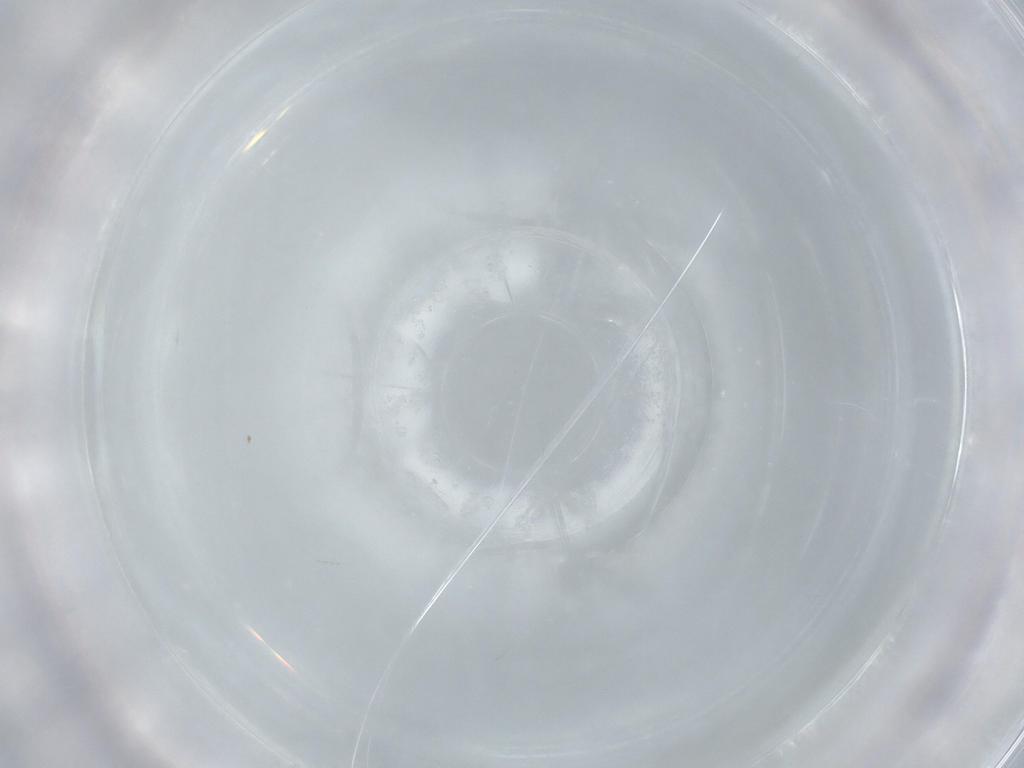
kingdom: Animalia
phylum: Arthropoda
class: Insecta
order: Diptera
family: Cecidomyiidae
